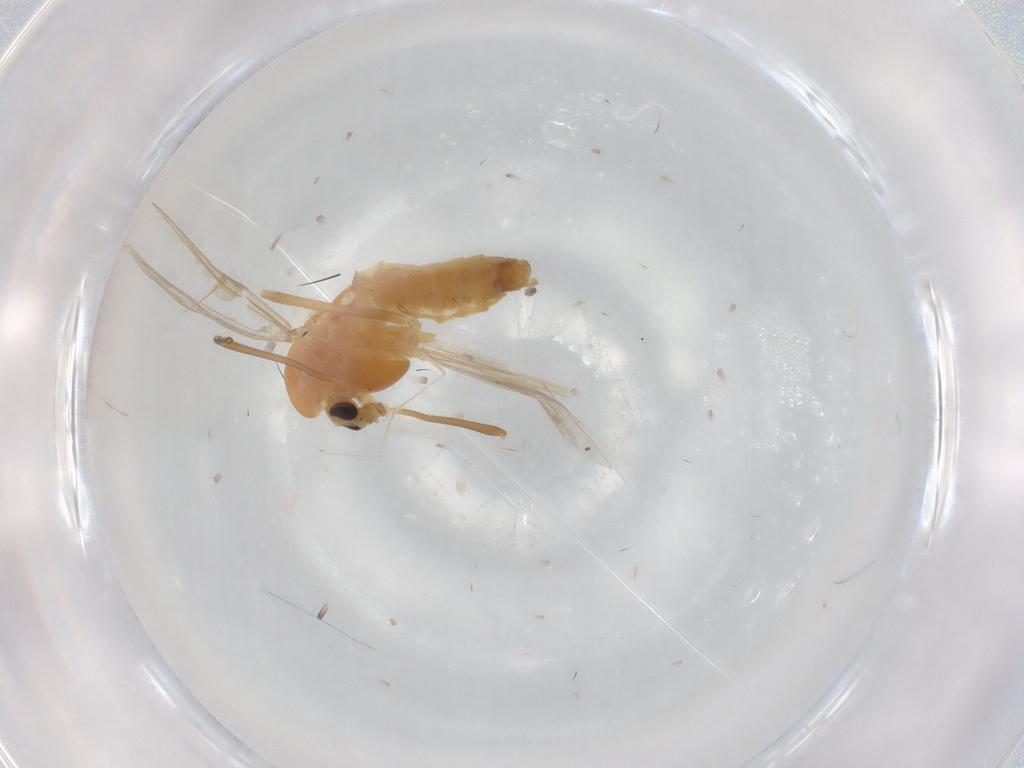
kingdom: Animalia
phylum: Arthropoda
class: Insecta
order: Diptera
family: Cecidomyiidae
